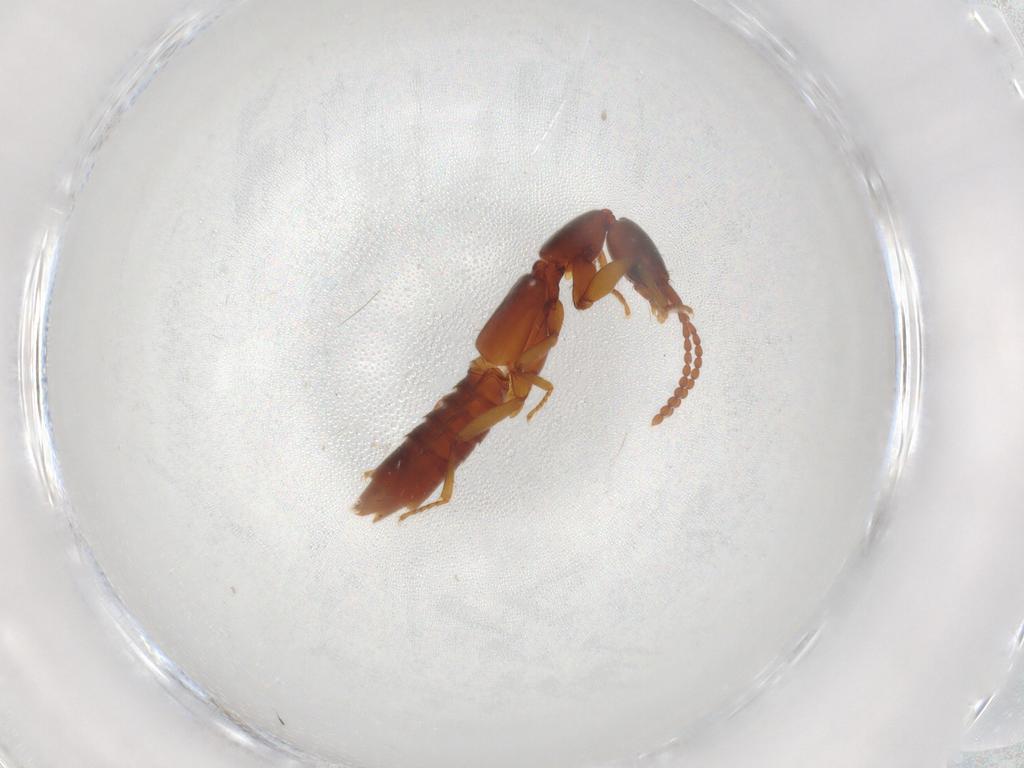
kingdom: Animalia
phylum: Arthropoda
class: Insecta
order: Coleoptera
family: Staphylinidae
